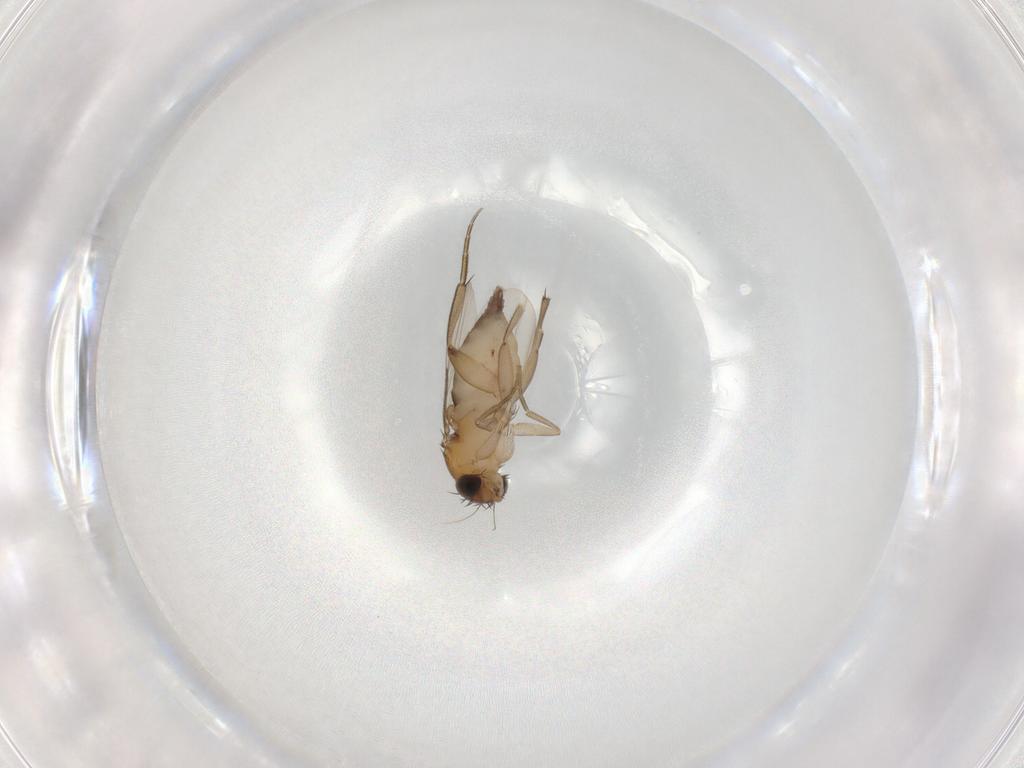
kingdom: Animalia
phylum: Arthropoda
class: Insecta
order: Diptera
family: Phoridae
